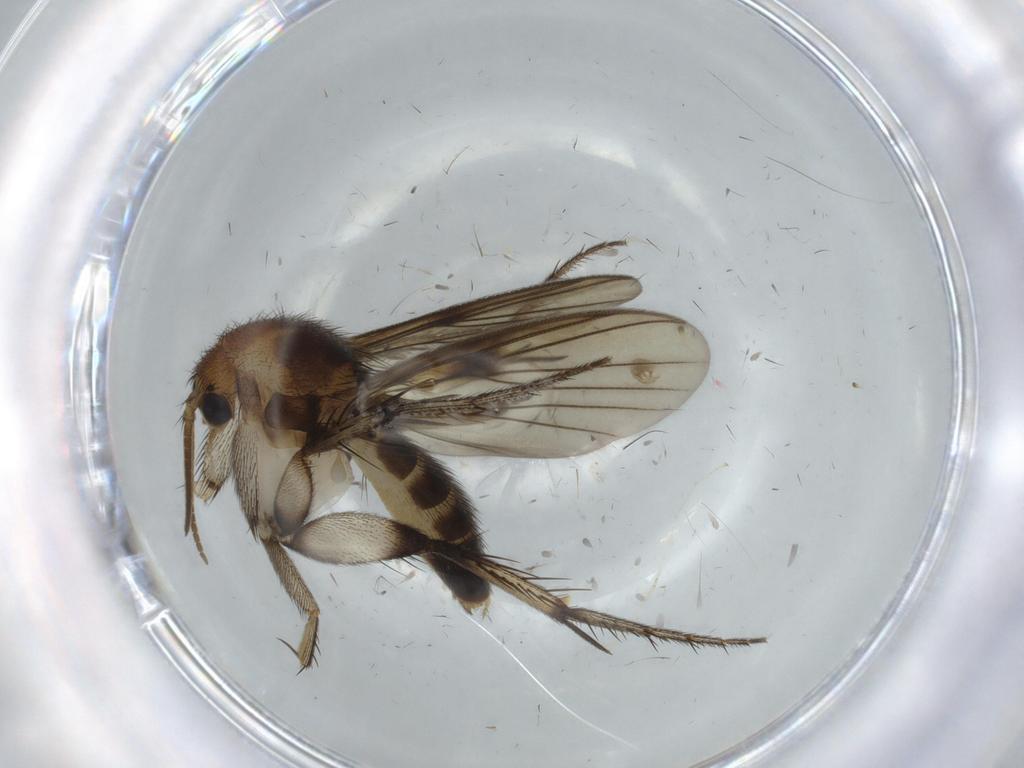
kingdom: Animalia
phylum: Arthropoda
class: Insecta
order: Diptera
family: Hybotidae
